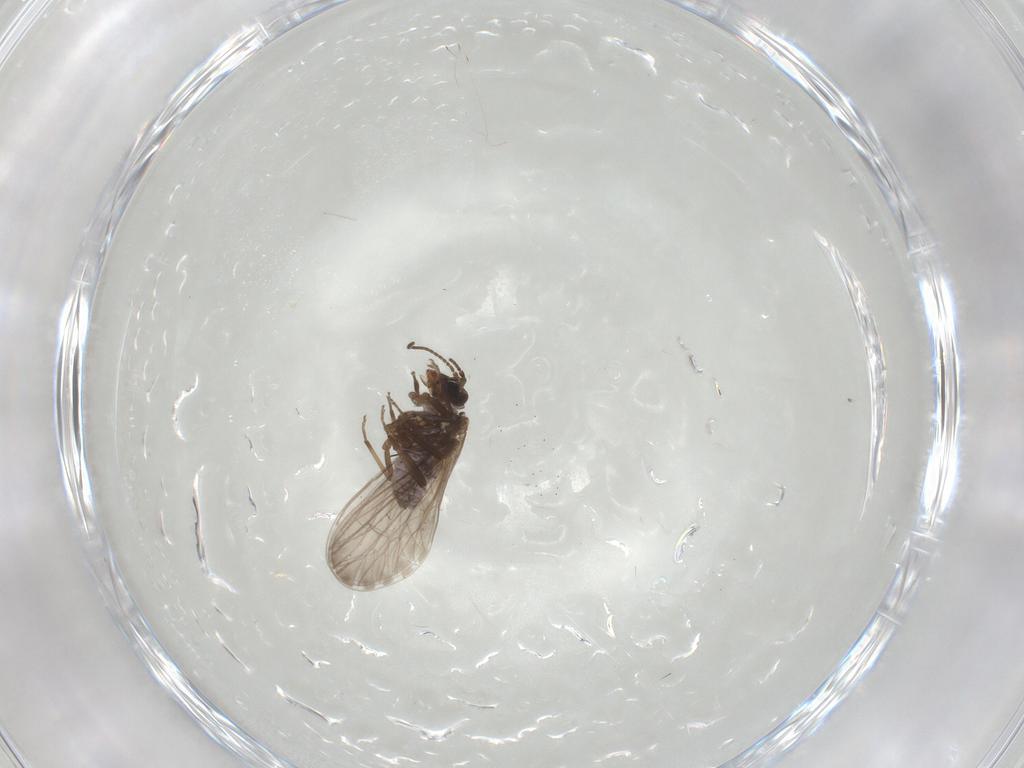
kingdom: Animalia
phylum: Arthropoda
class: Insecta
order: Neuroptera
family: Coniopterygidae
